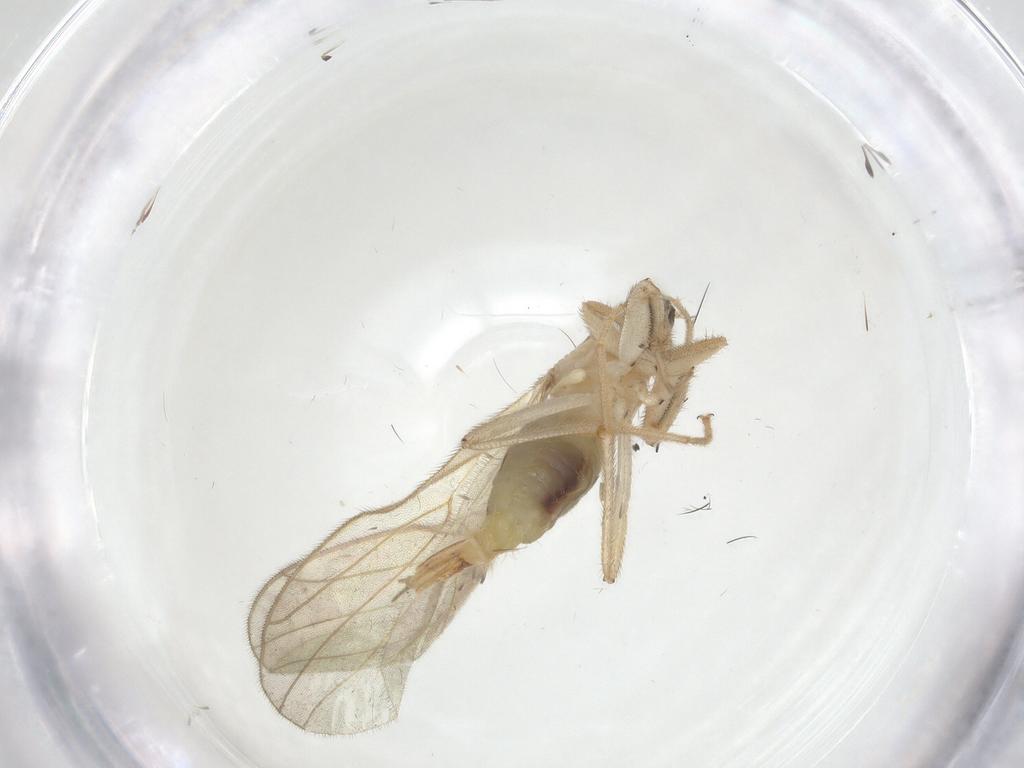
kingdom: Animalia
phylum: Arthropoda
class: Insecta
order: Diptera
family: Hybotidae
